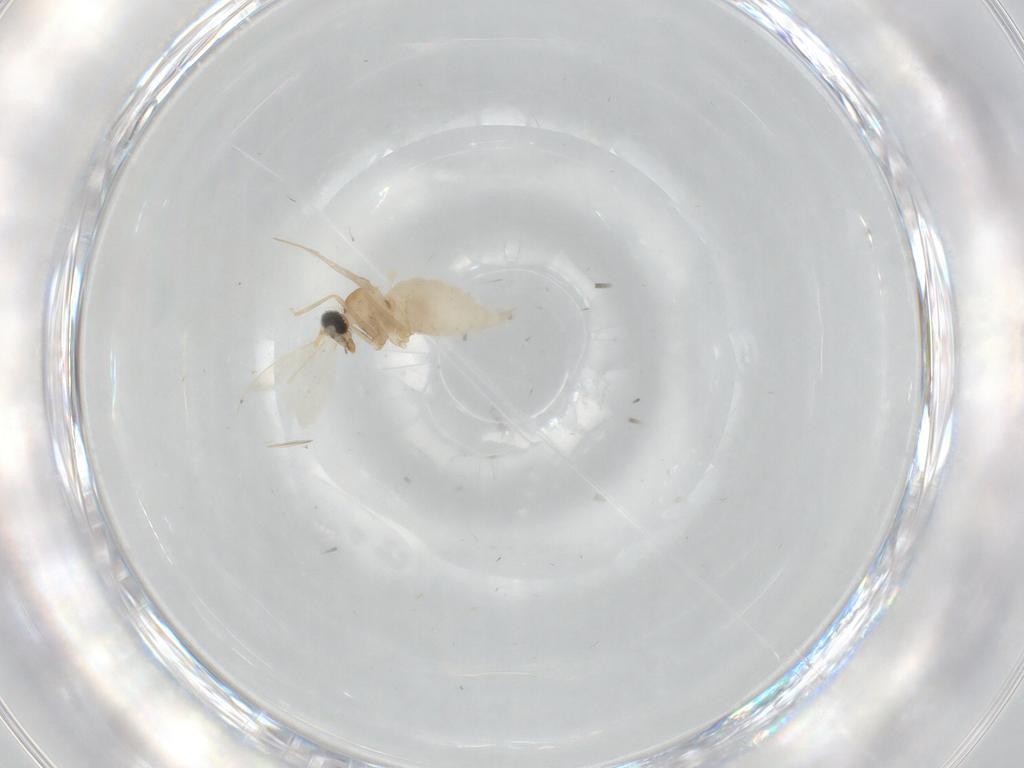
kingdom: Animalia
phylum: Arthropoda
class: Insecta
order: Diptera
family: Cecidomyiidae
